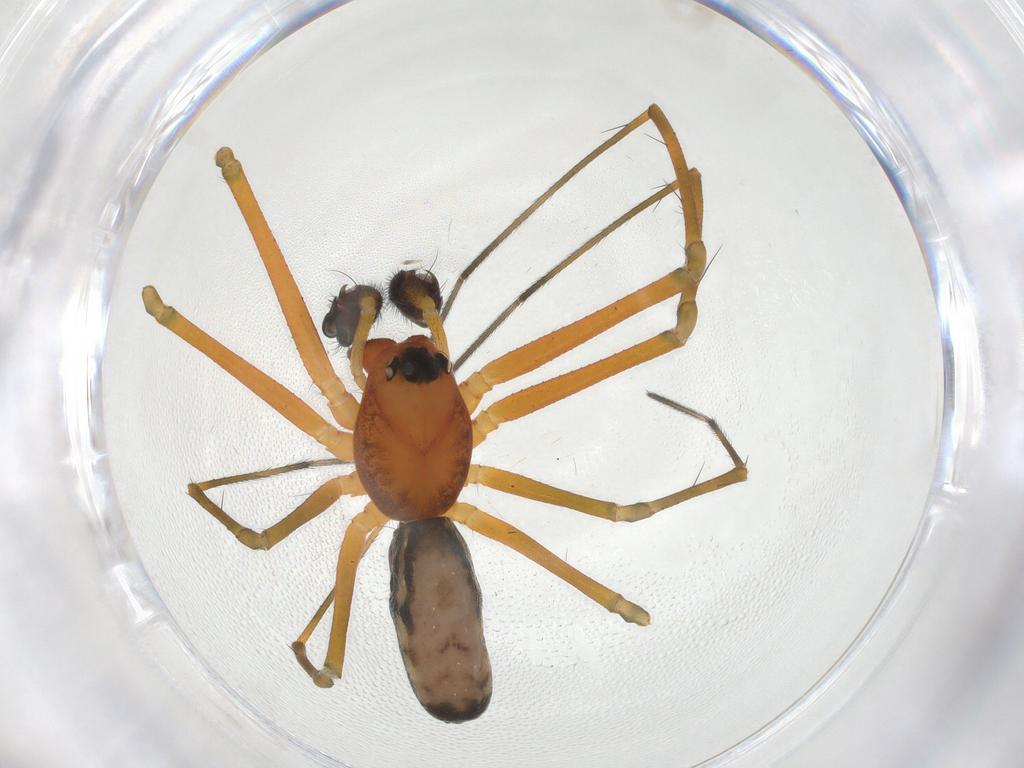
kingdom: Animalia
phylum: Arthropoda
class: Arachnida
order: Araneae
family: Linyphiidae
